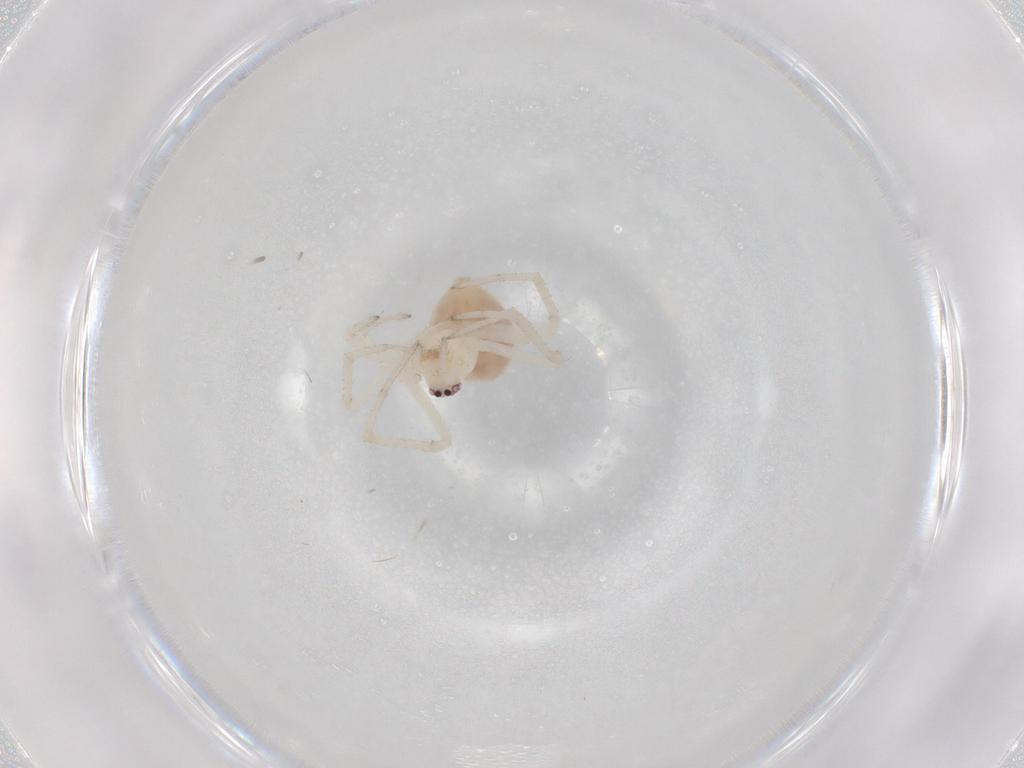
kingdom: Animalia
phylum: Arthropoda
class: Arachnida
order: Araneae
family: Nesticidae
